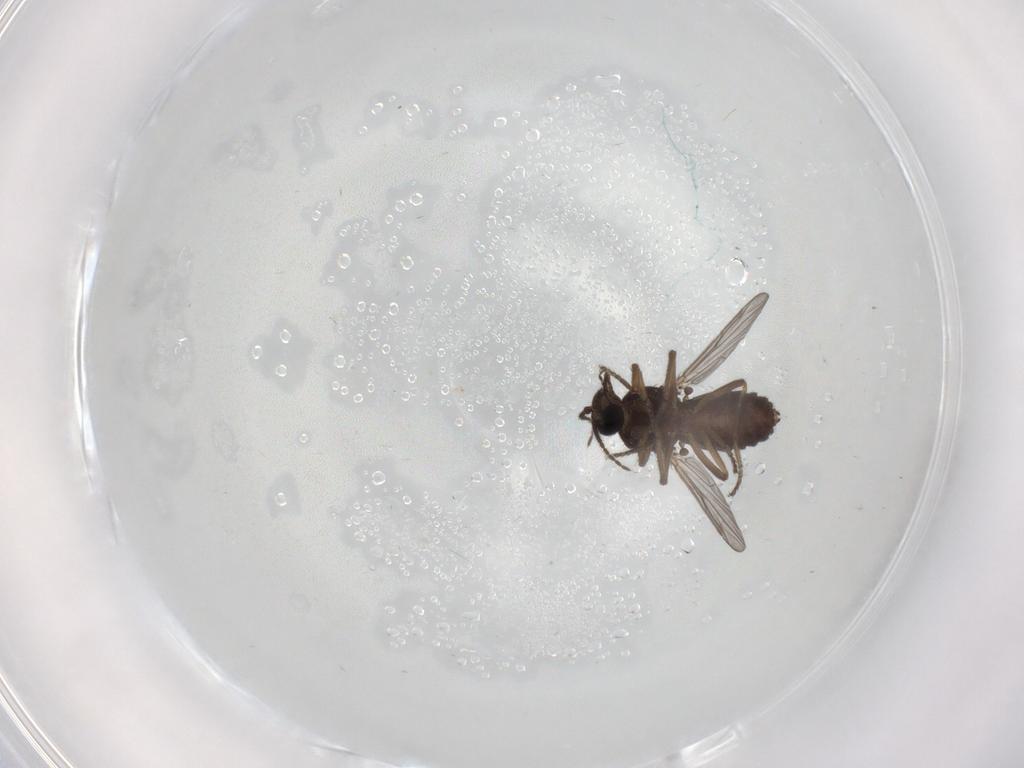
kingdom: Animalia
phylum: Arthropoda
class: Insecta
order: Diptera
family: Ceratopogonidae
